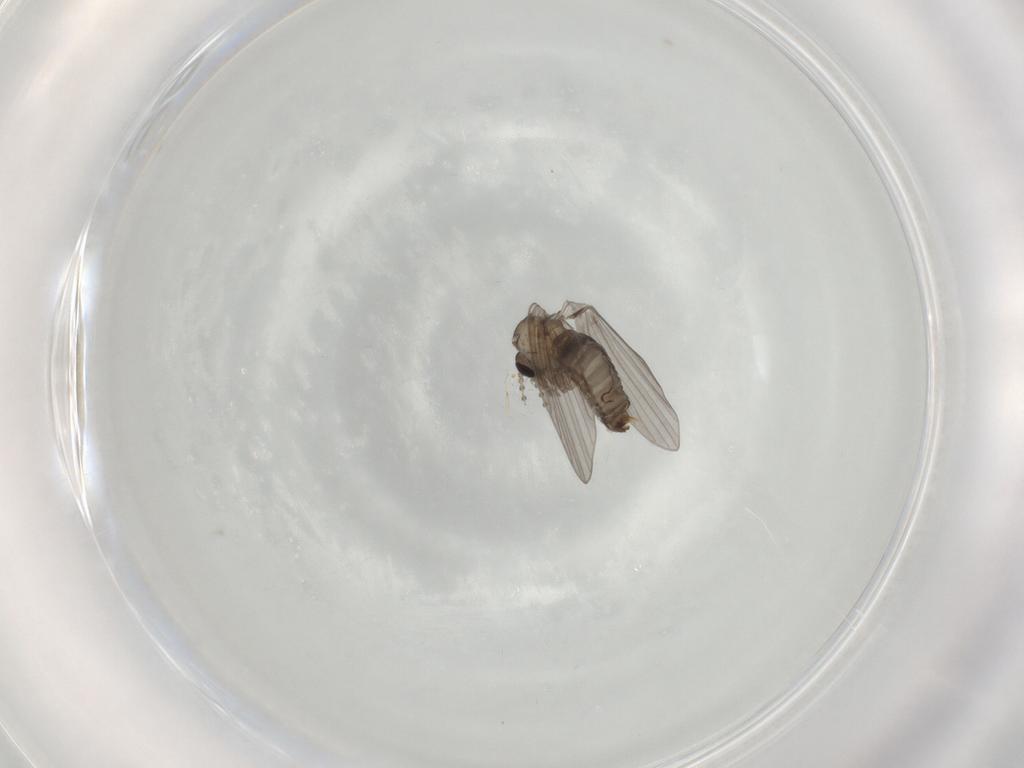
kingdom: Animalia
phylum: Arthropoda
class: Insecta
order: Diptera
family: Psychodidae
